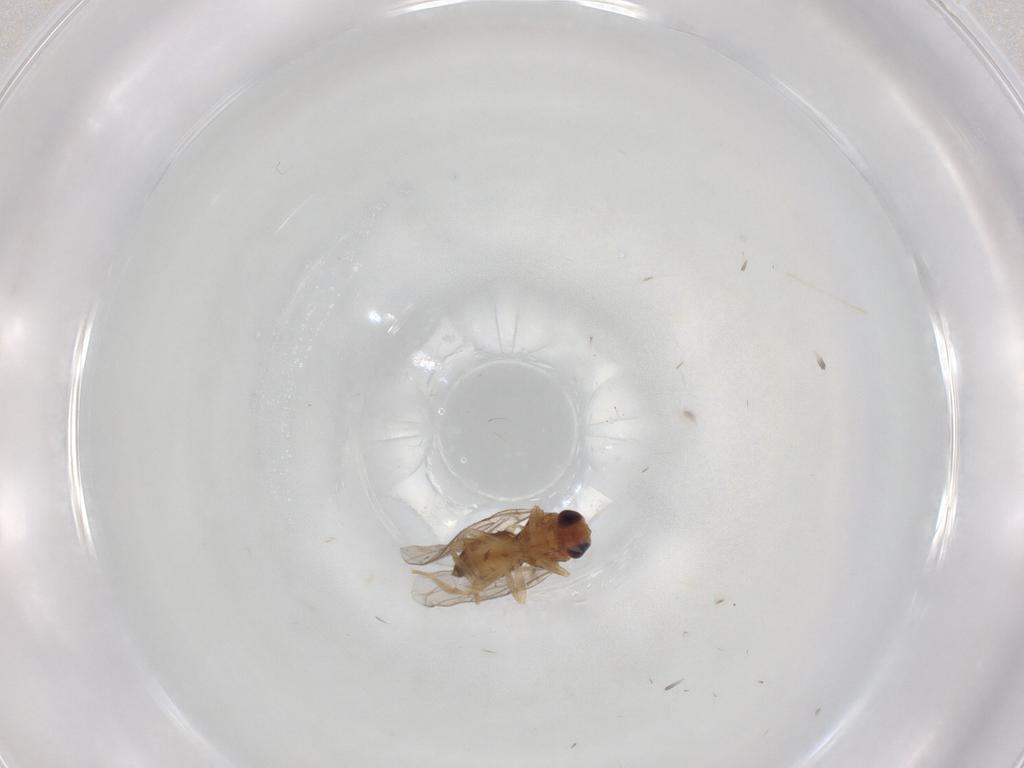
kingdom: Animalia
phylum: Arthropoda
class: Insecta
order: Diptera
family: Chloropidae
